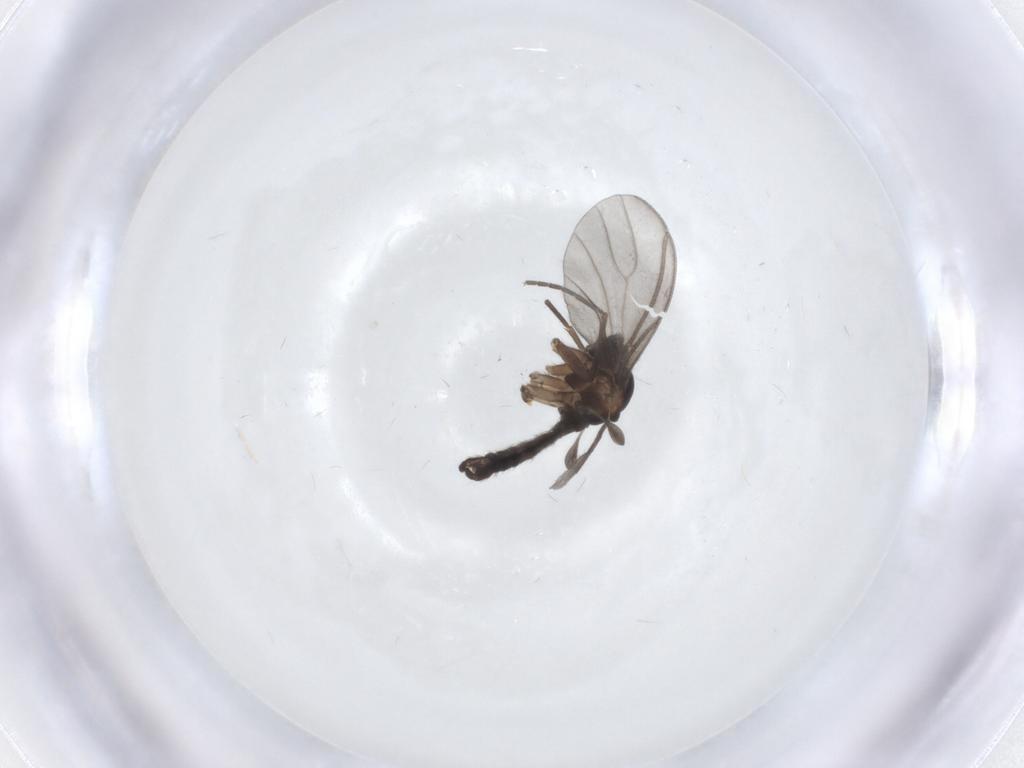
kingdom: Animalia
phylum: Arthropoda
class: Insecta
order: Diptera
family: Sciaridae
